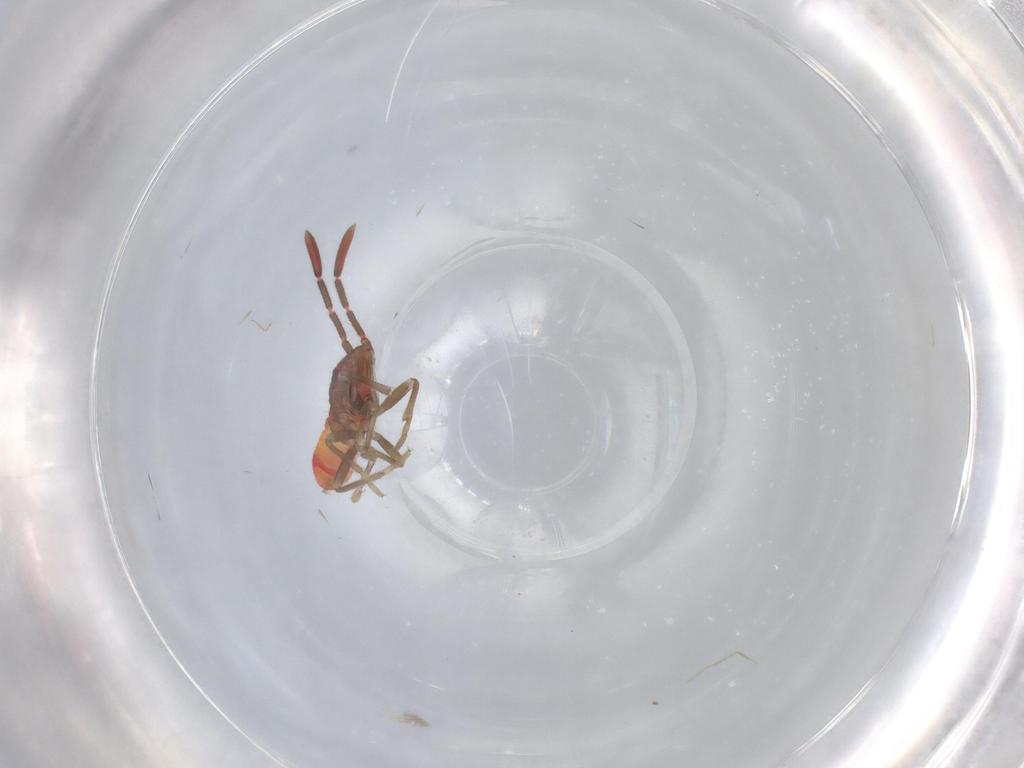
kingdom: Animalia
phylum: Arthropoda
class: Insecta
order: Hemiptera
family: Rhyparochromidae
